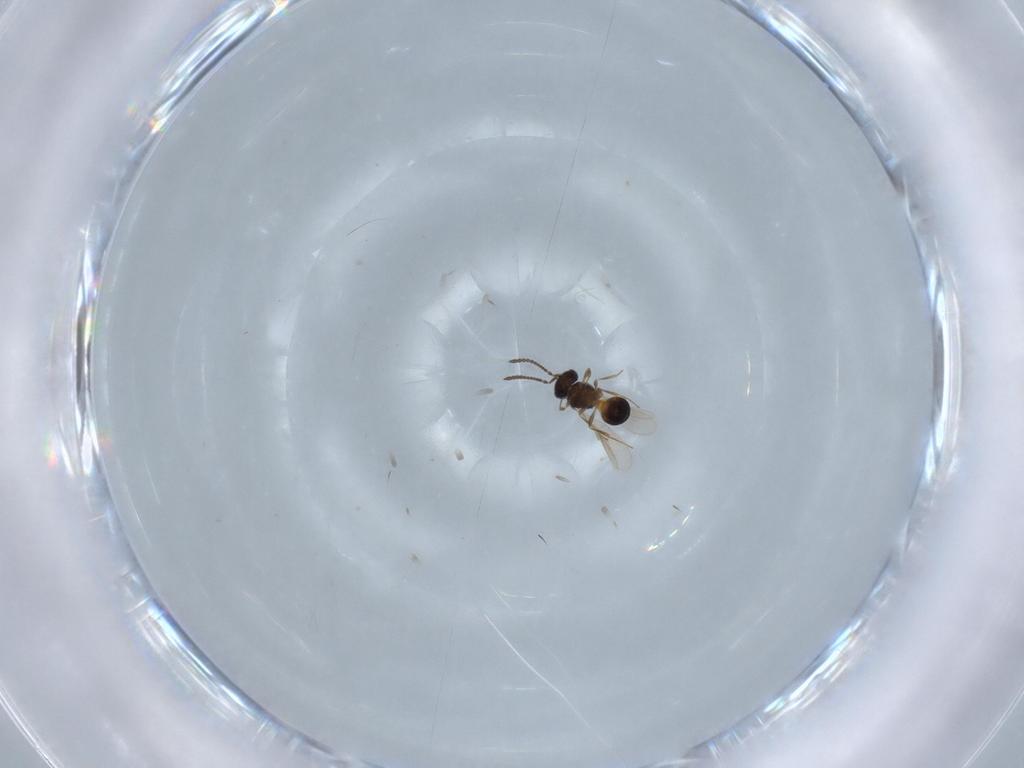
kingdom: Animalia
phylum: Arthropoda
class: Insecta
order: Hymenoptera
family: Scelionidae
